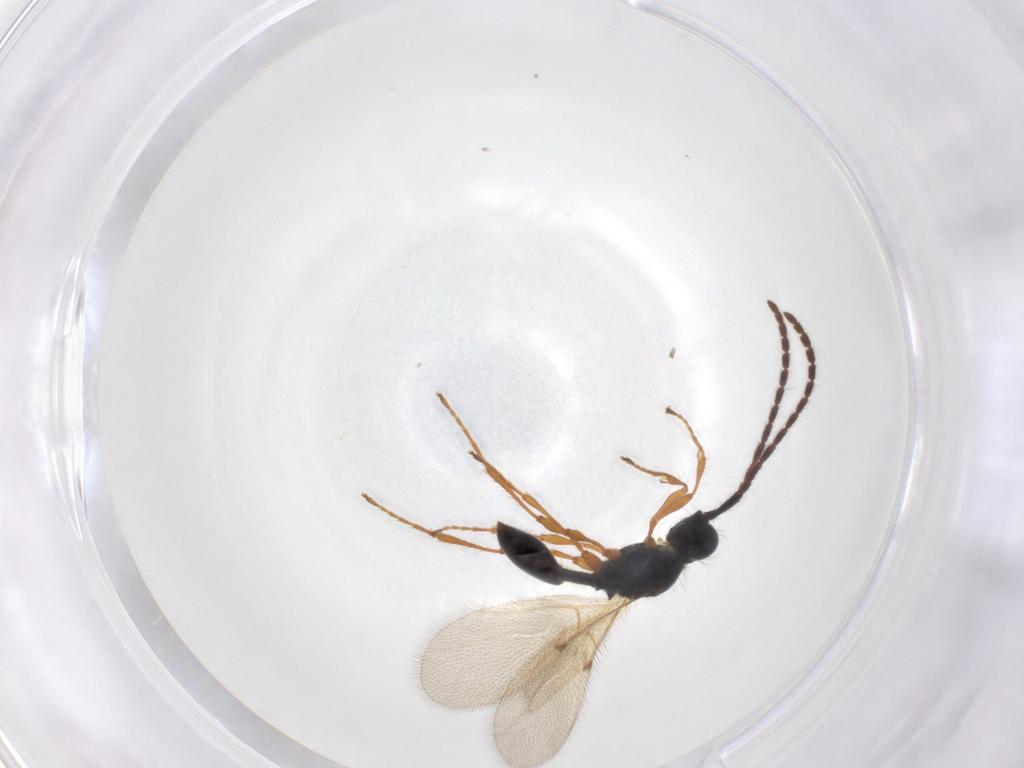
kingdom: Animalia
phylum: Arthropoda
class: Insecta
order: Hymenoptera
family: Diapriidae
